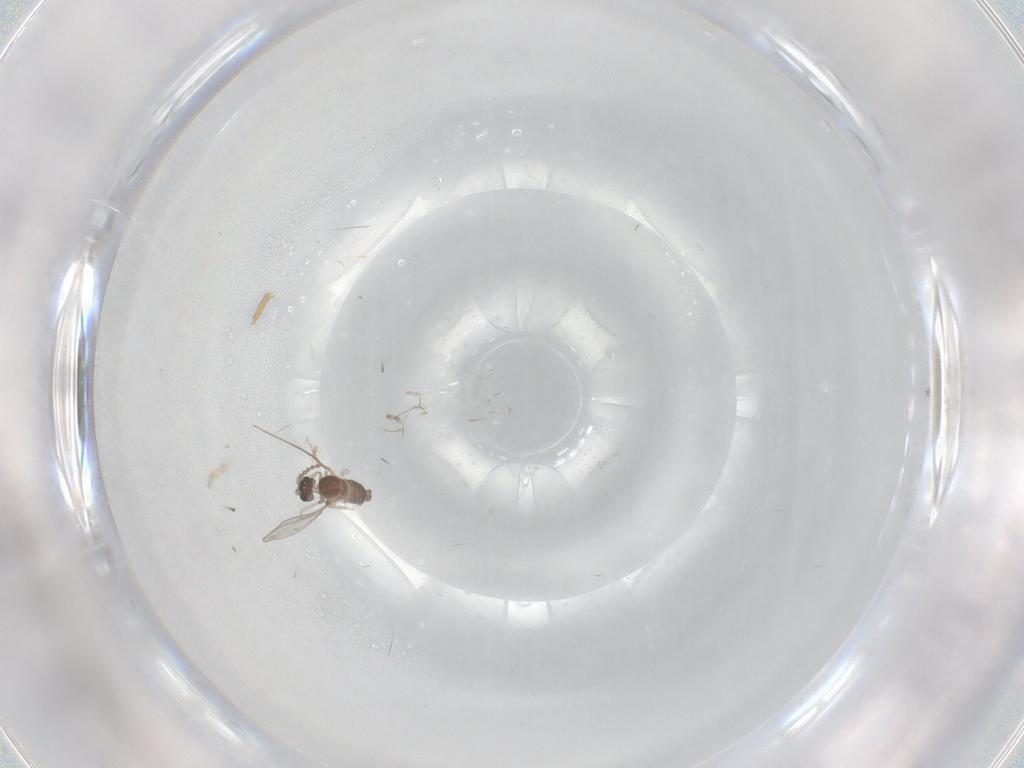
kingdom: Animalia
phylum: Arthropoda
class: Insecta
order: Diptera
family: Cecidomyiidae
